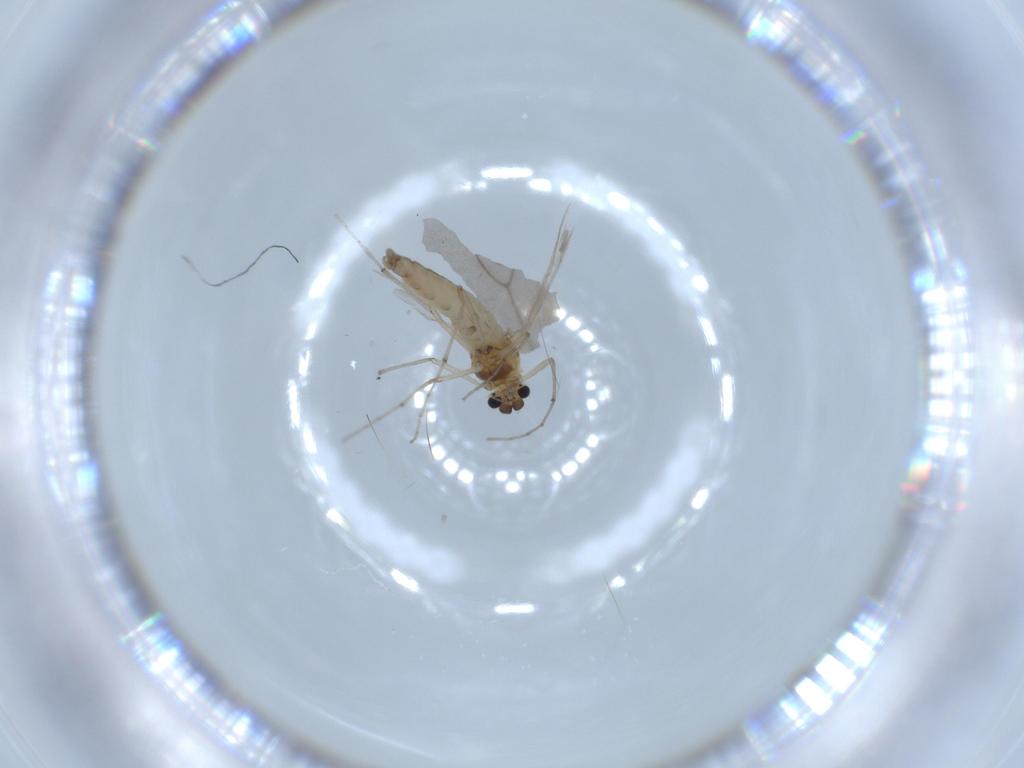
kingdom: Animalia
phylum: Arthropoda
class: Insecta
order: Diptera
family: Chironomidae
